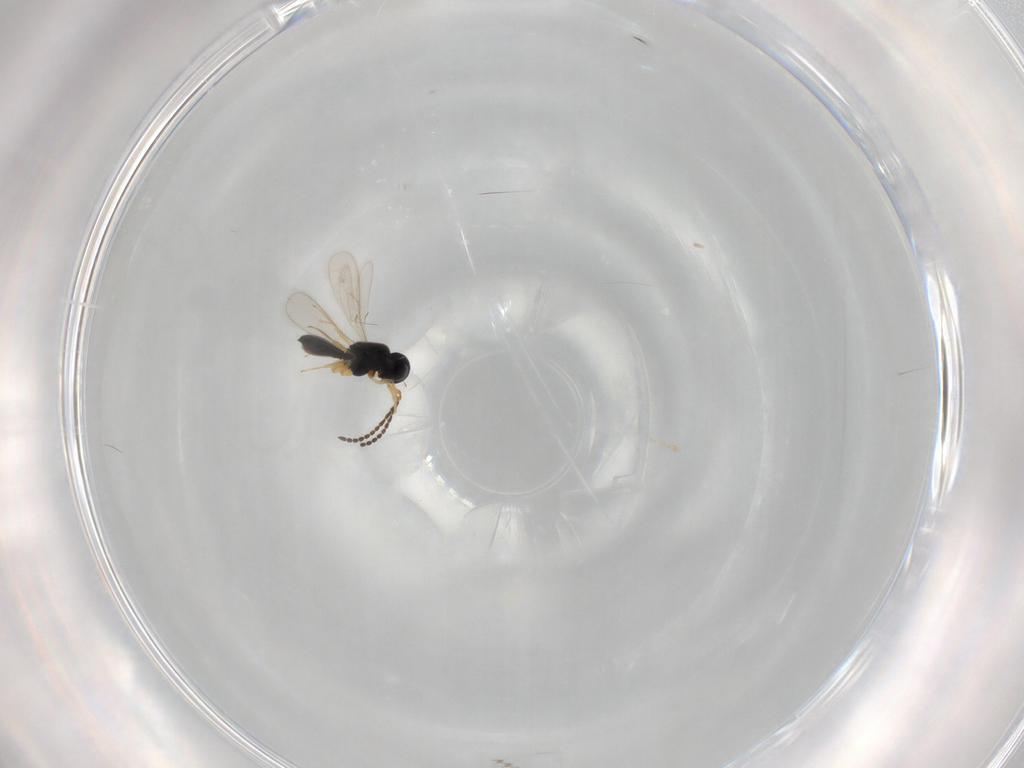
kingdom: Animalia
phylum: Arthropoda
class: Insecta
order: Hymenoptera
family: Scelionidae
